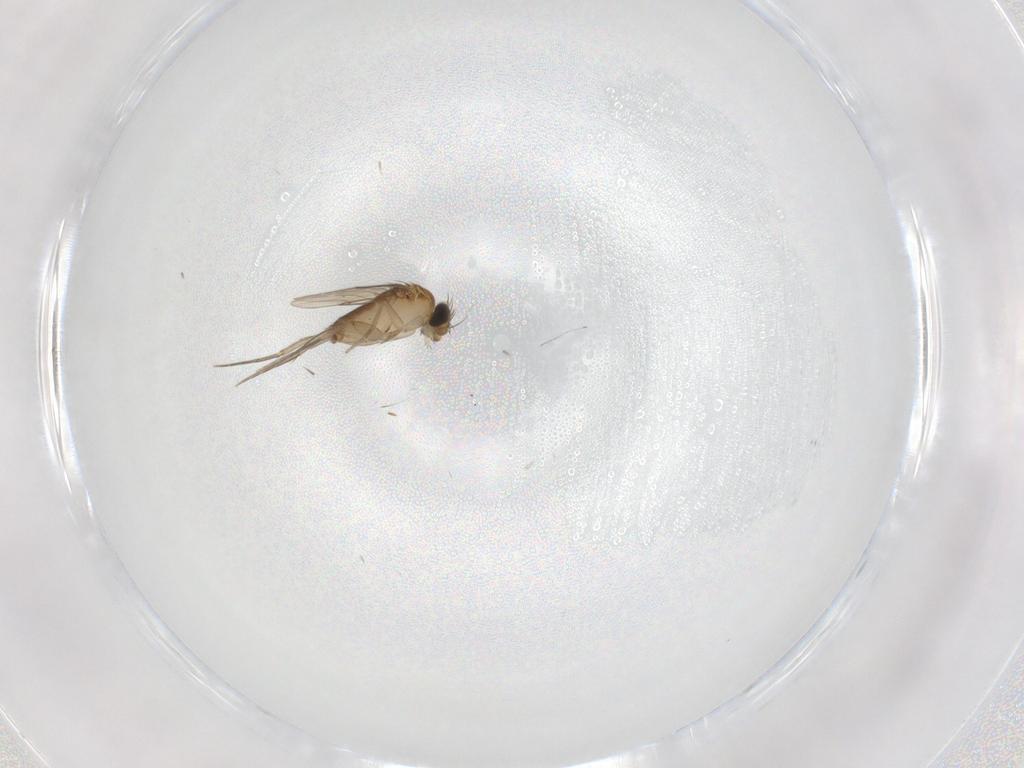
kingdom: Animalia
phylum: Arthropoda
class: Insecta
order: Diptera
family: Phoridae
